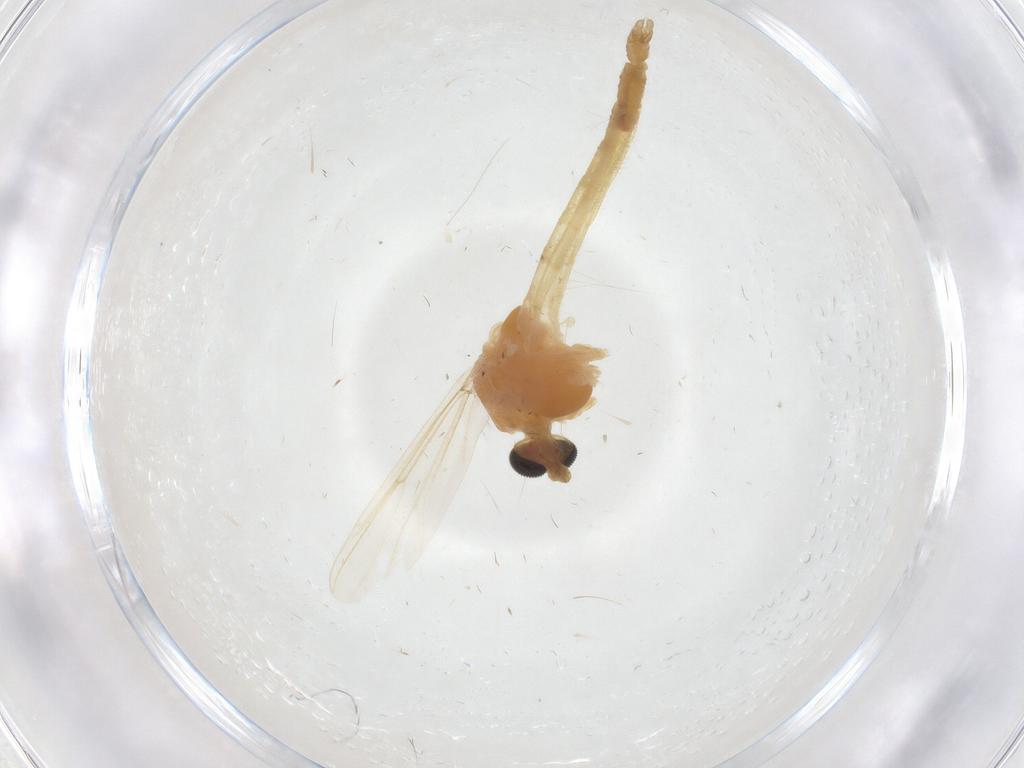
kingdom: Animalia
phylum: Arthropoda
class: Insecta
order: Diptera
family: Chironomidae
